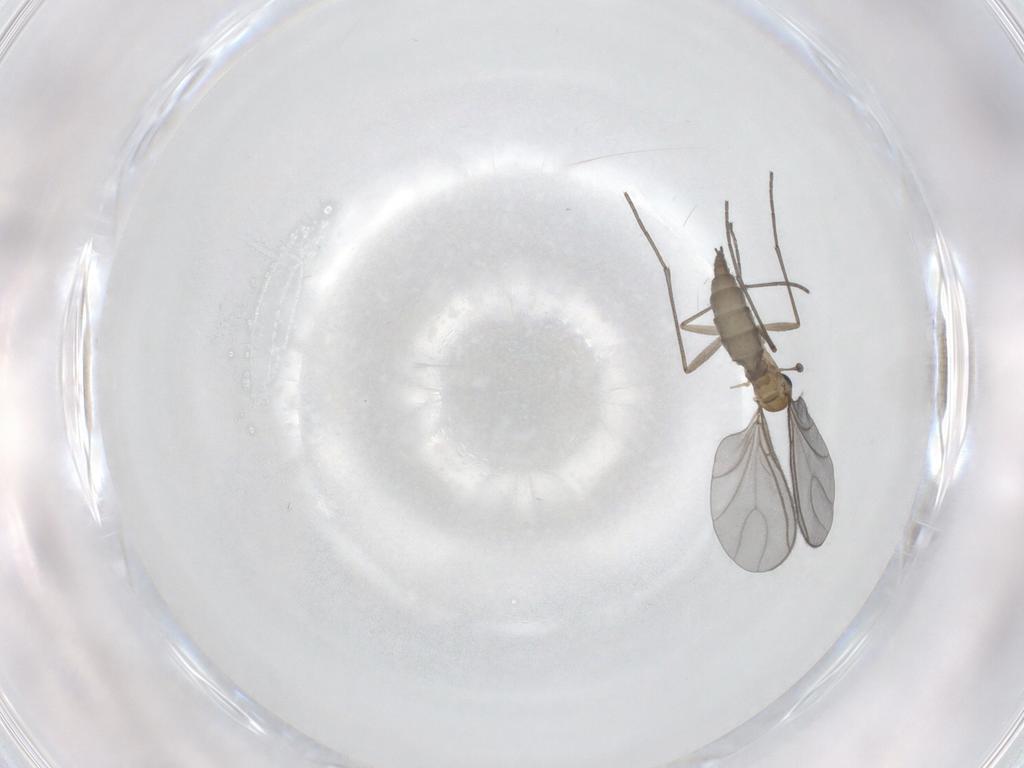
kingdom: Animalia
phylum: Arthropoda
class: Insecta
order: Diptera
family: Sciaridae
